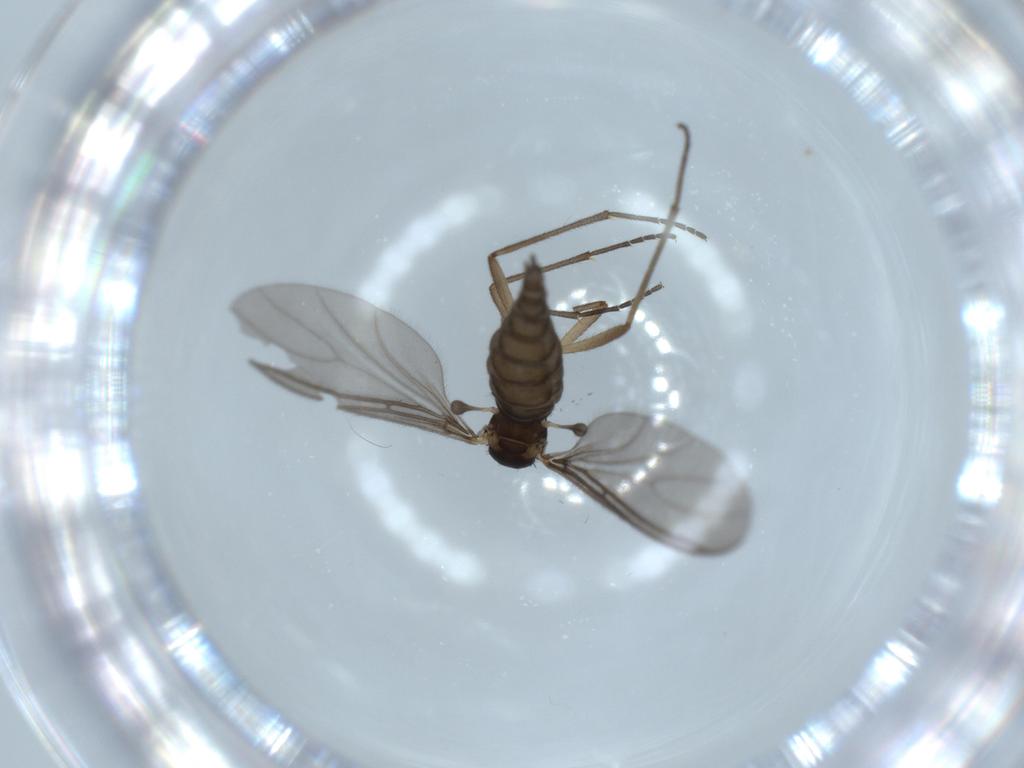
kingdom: Animalia
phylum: Arthropoda
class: Insecta
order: Diptera
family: Sciaridae
